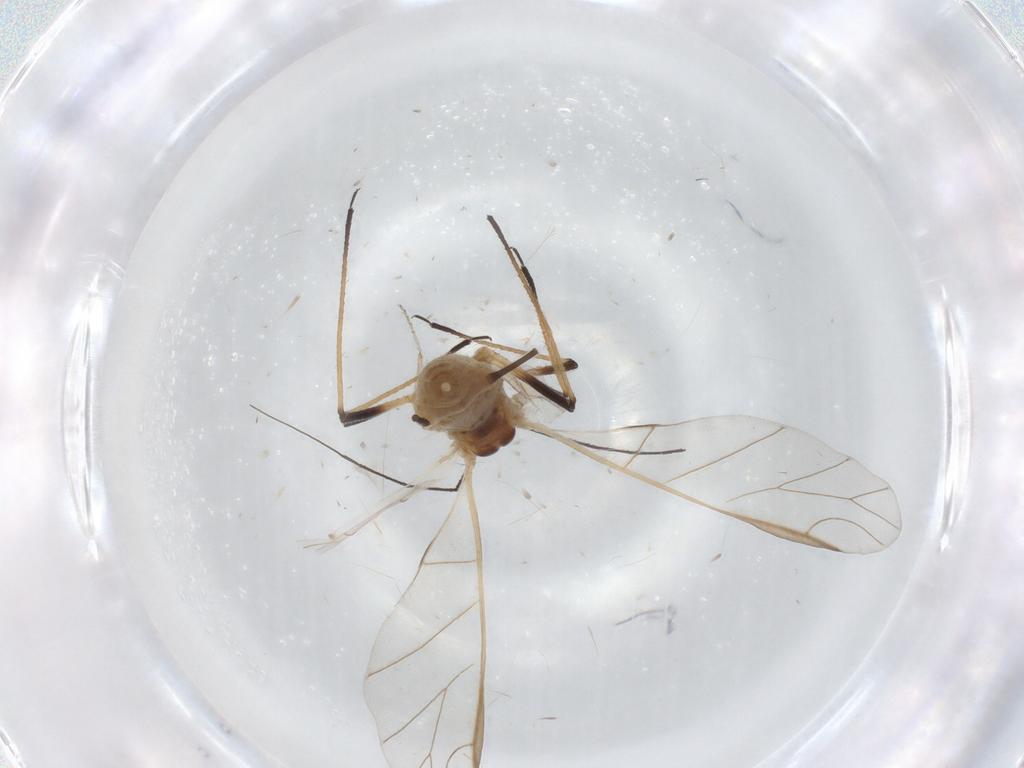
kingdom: Animalia
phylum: Arthropoda
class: Insecta
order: Hemiptera
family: Aphididae
